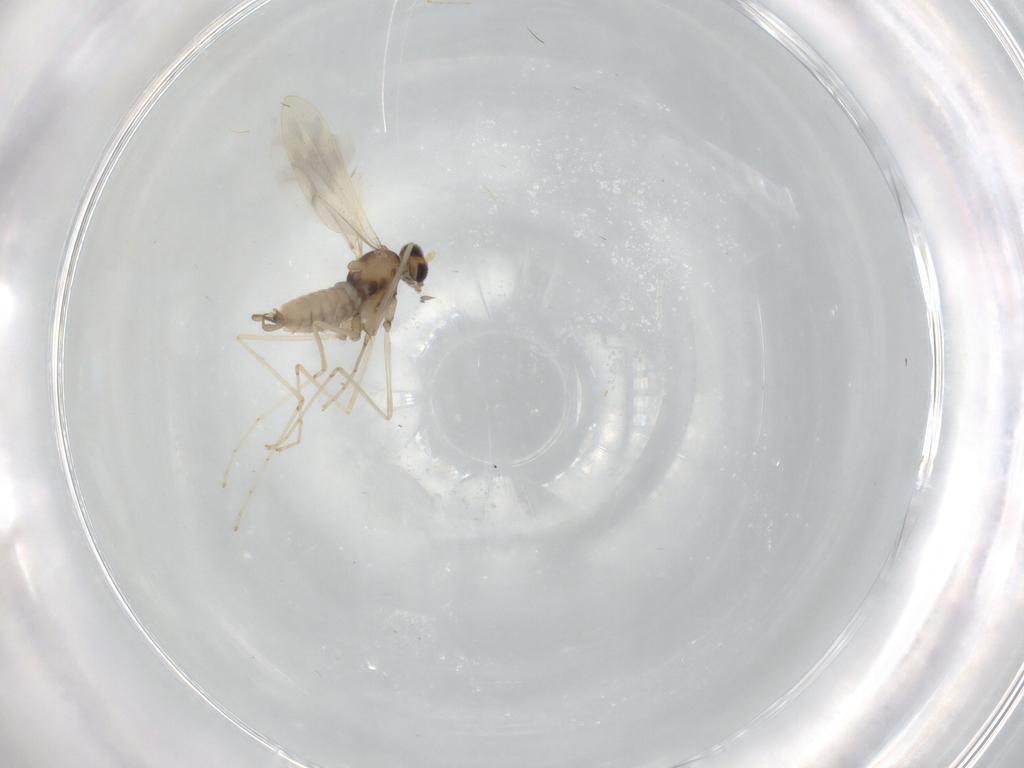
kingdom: Animalia
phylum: Arthropoda
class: Insecta
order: Diptera
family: Cecidomyiidae
